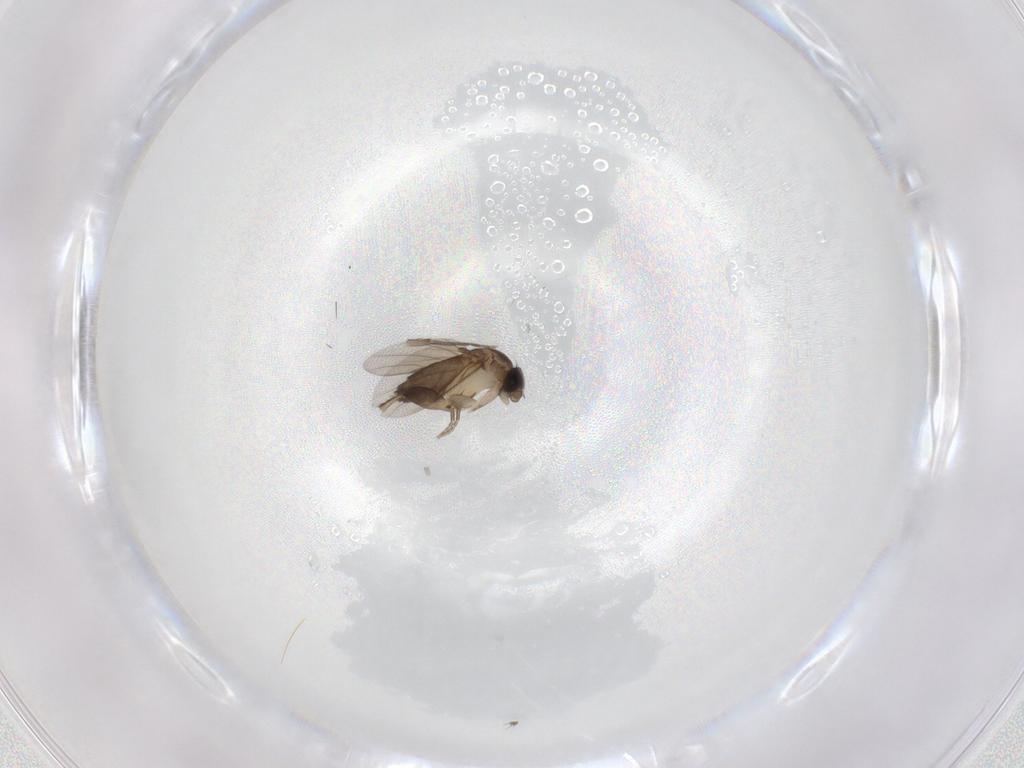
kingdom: Animalia
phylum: Arthropoda
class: Insecta
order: Diptera
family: Phoridae
